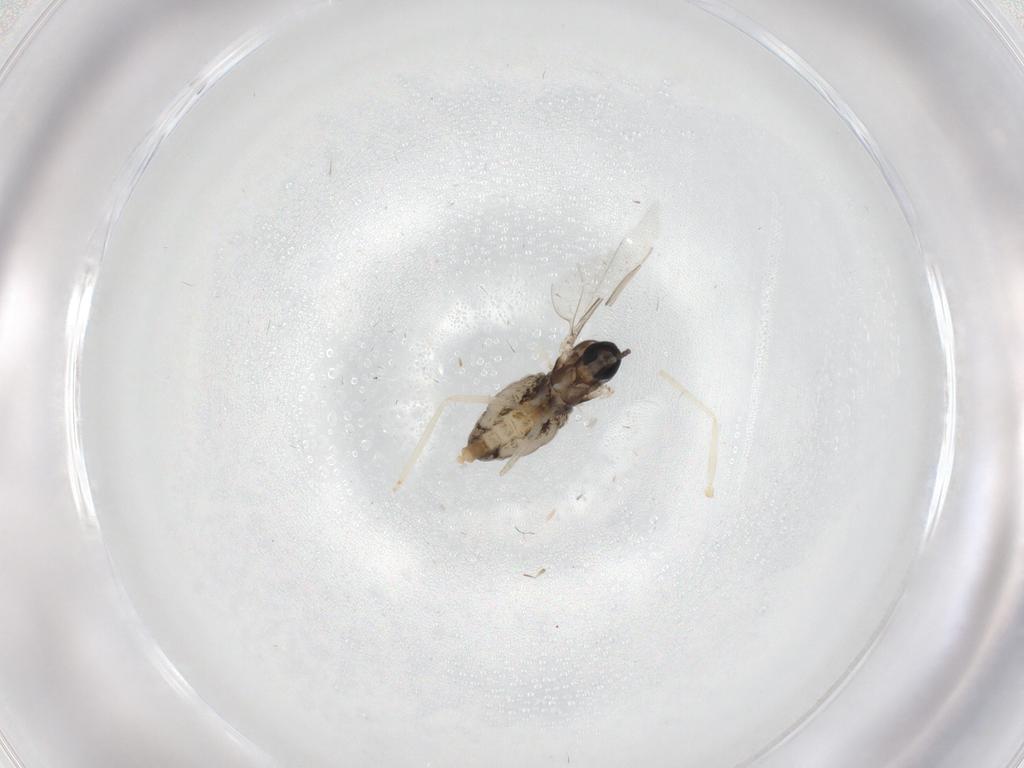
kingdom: Animalia
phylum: Arthropoda
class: Insecta
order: Diptera
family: Cecidomyiidae
